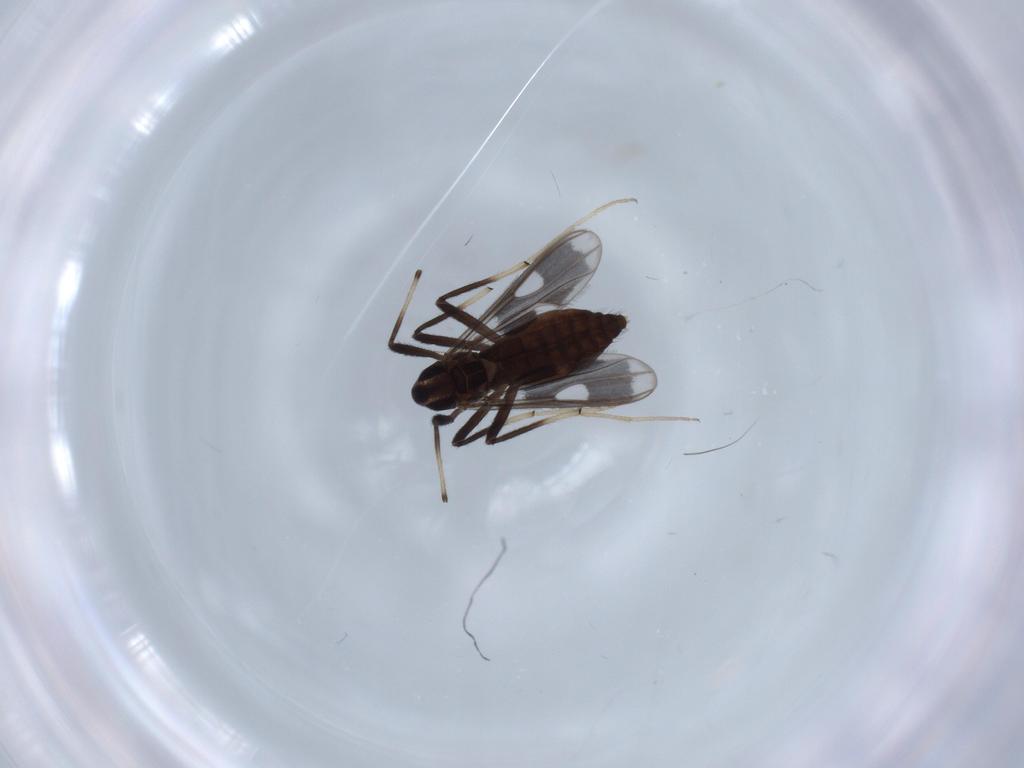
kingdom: Animalia
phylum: Arthropoda
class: Insecta
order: Diptera
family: Chironomidae
